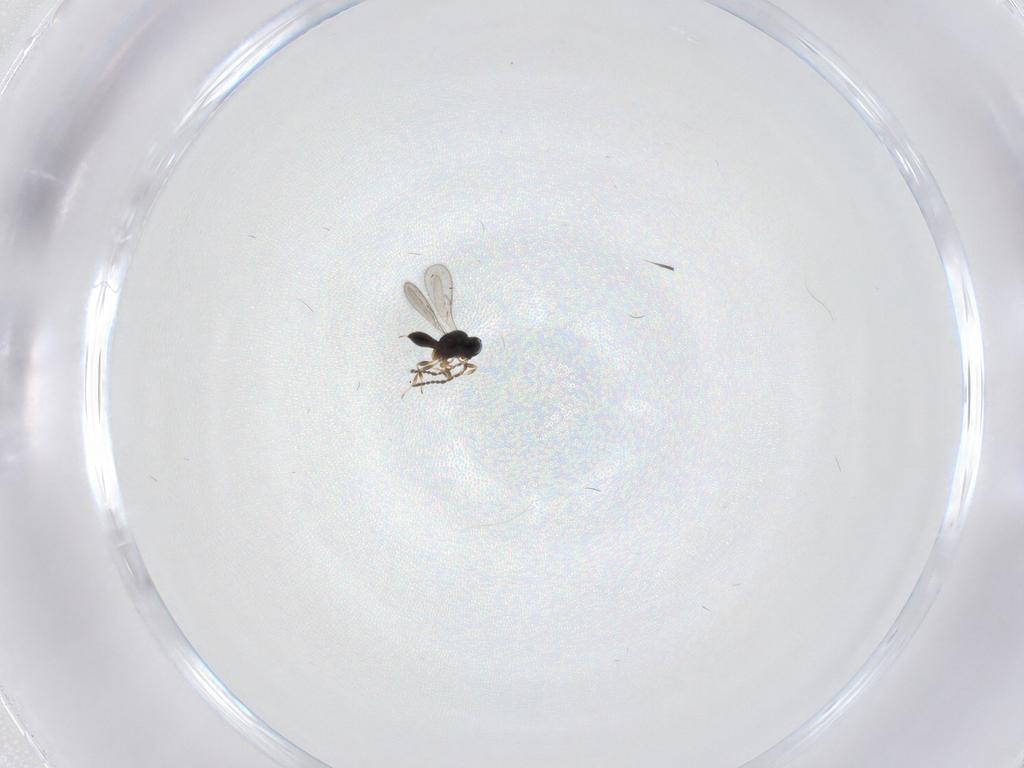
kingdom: Animalia
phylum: Arthropoda
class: Insecta
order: Hymenoptera
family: Scelionidae
